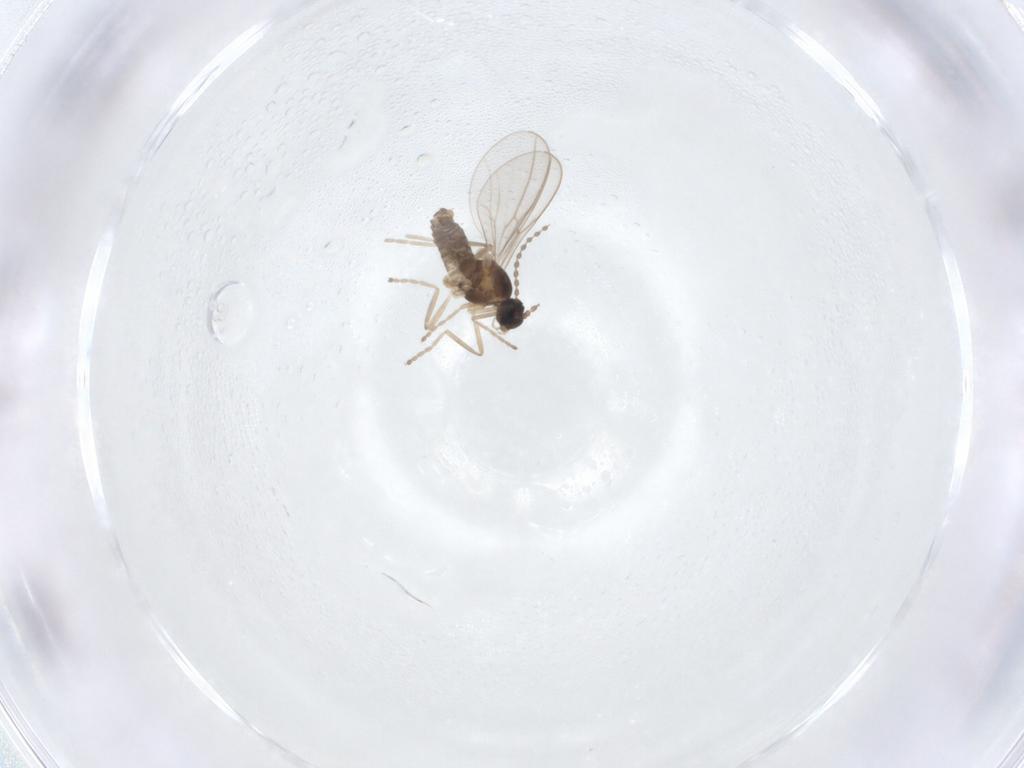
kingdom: Animalia
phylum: Arthropoda
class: Insecta
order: Diptera
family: Cecidomyiidae
